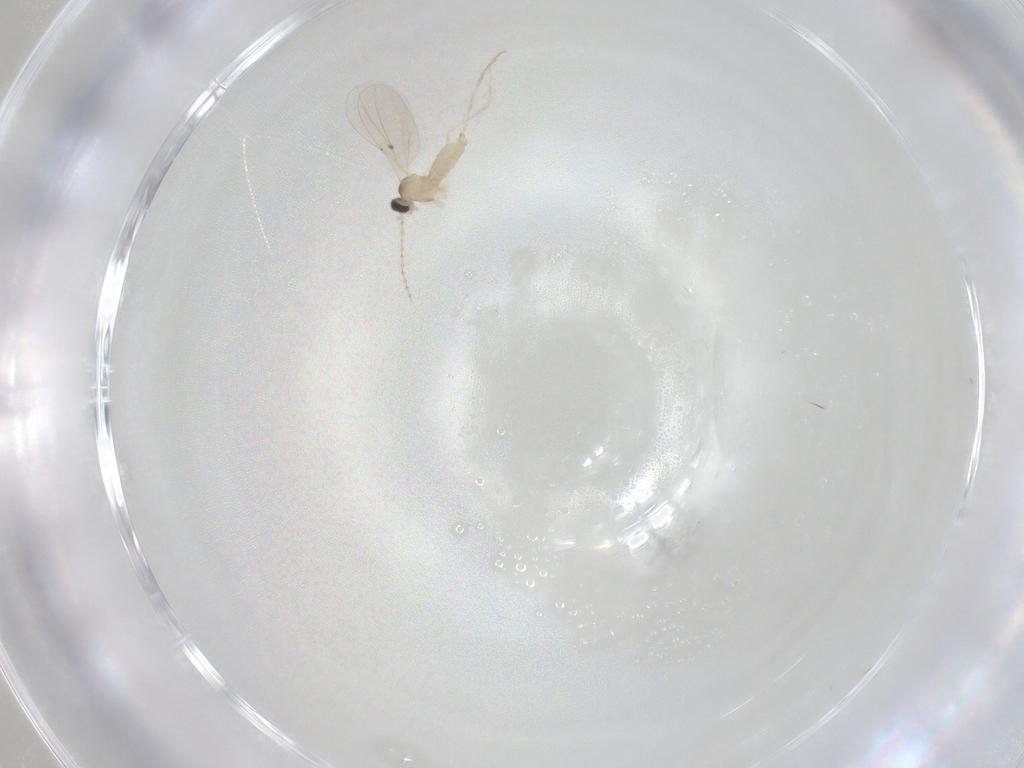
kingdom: Animalia
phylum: Arthropoda
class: Insecta
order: Diptera
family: Cecidomyiidae
